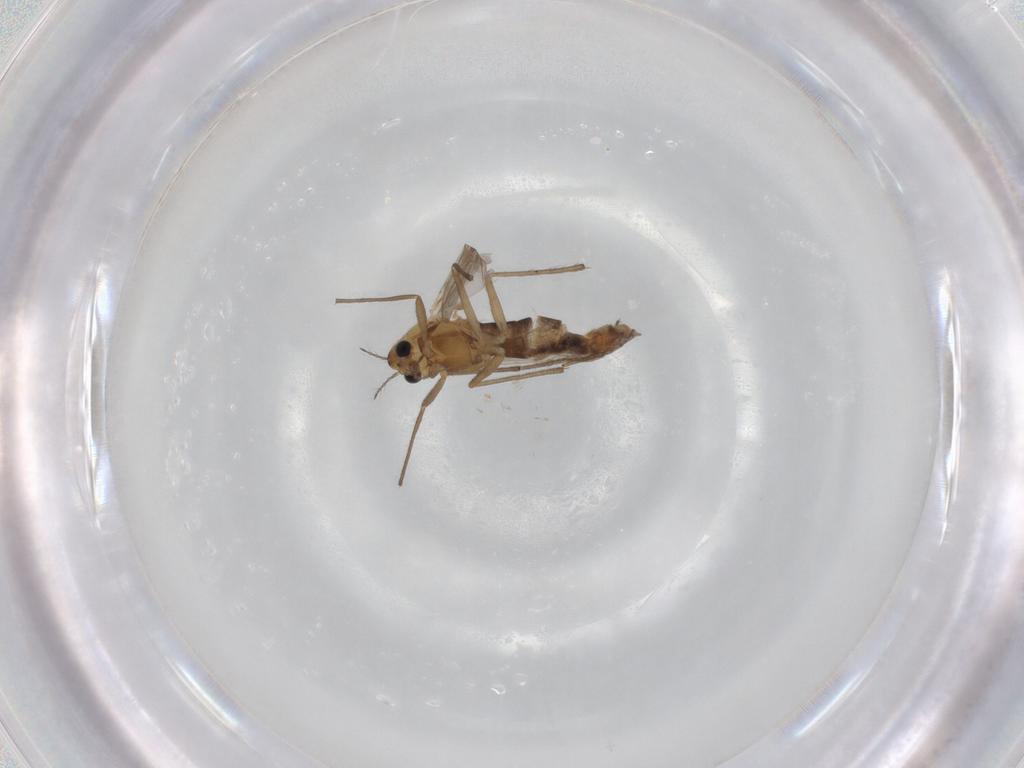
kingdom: Animalia
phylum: Arthropoda
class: Insecta
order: Diptera
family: Chironomidae
